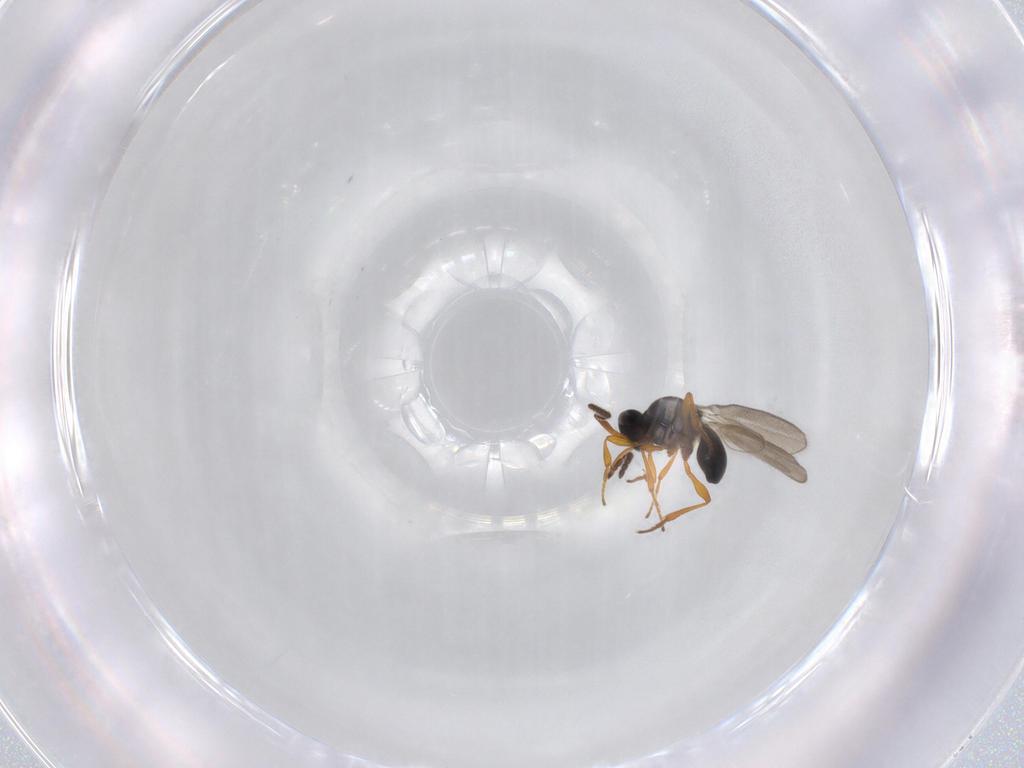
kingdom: Animalia
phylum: Arthropoda
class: Insecta
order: Hymenoptera
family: Platygastridae
